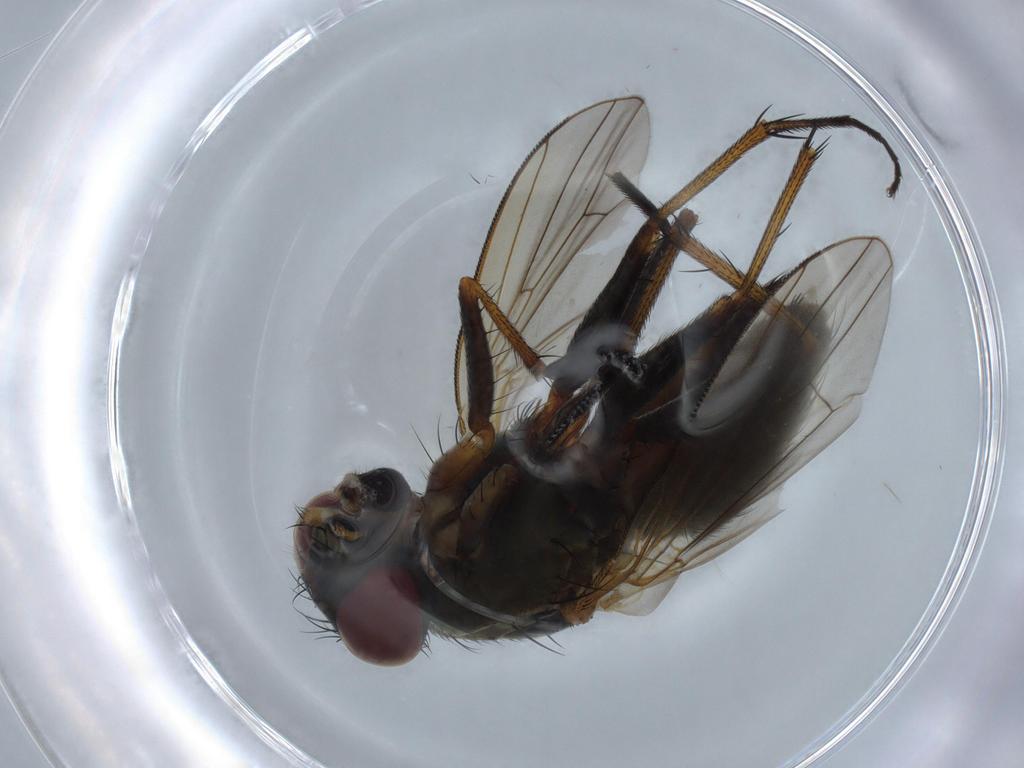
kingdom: Animalia
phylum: Arthropoda
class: Insecta
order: Diptera
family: Muscidae
